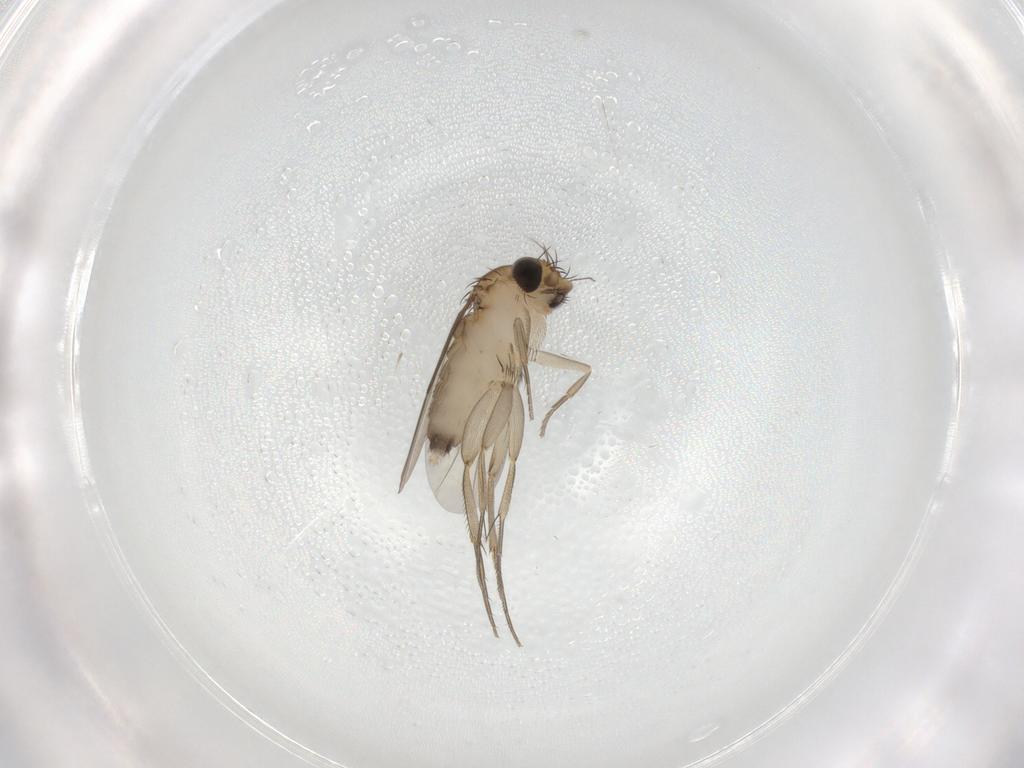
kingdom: Animalia
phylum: Arthropoda
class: Insecta
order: Diptera
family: Phoridae
